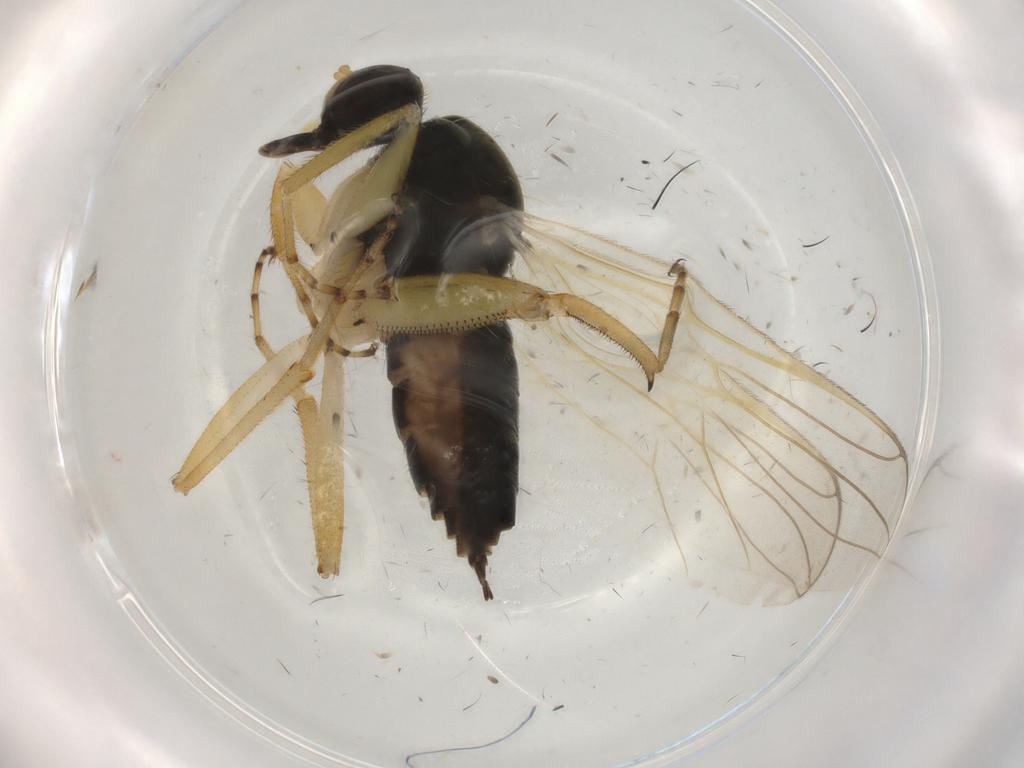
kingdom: Animalia
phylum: Arthropoda
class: Insecta
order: Diptera
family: Hybotidae
